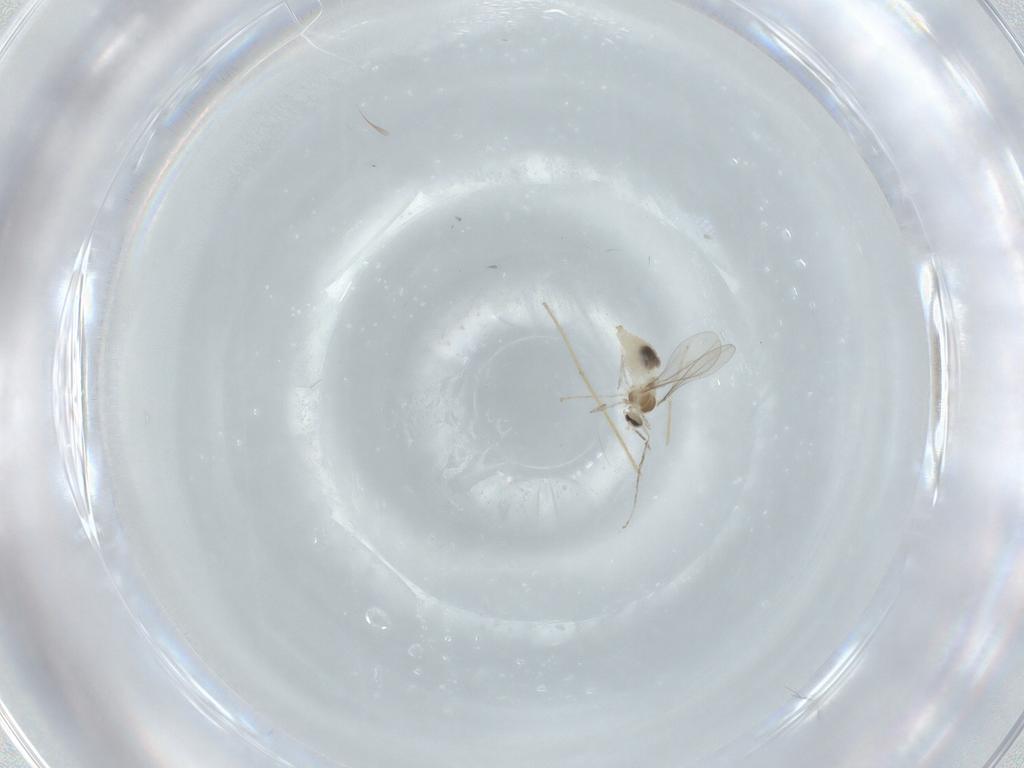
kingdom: Animalia
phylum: Arthropoda
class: Insecta
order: Diptera
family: Cecidomyiidae
